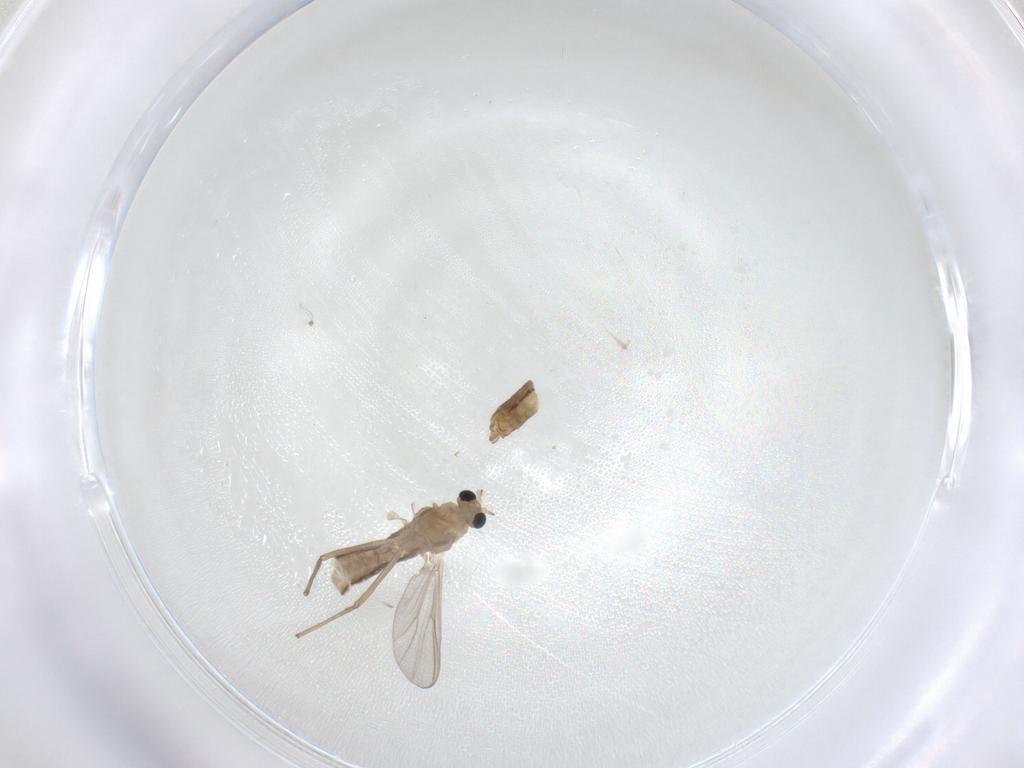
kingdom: Animalia
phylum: Arthropoda
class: Insecta
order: Diptera
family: Chironomidae
